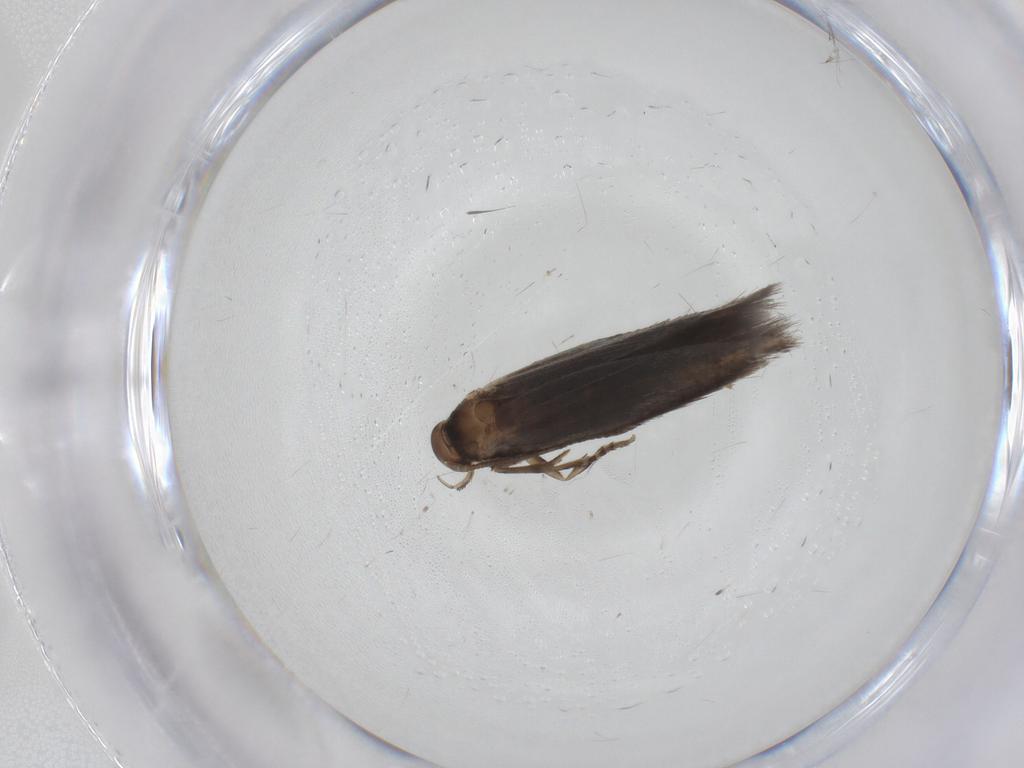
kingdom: Animalia
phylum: Arthropoda
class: Insecta
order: Lepidoptera
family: Elachistidae
